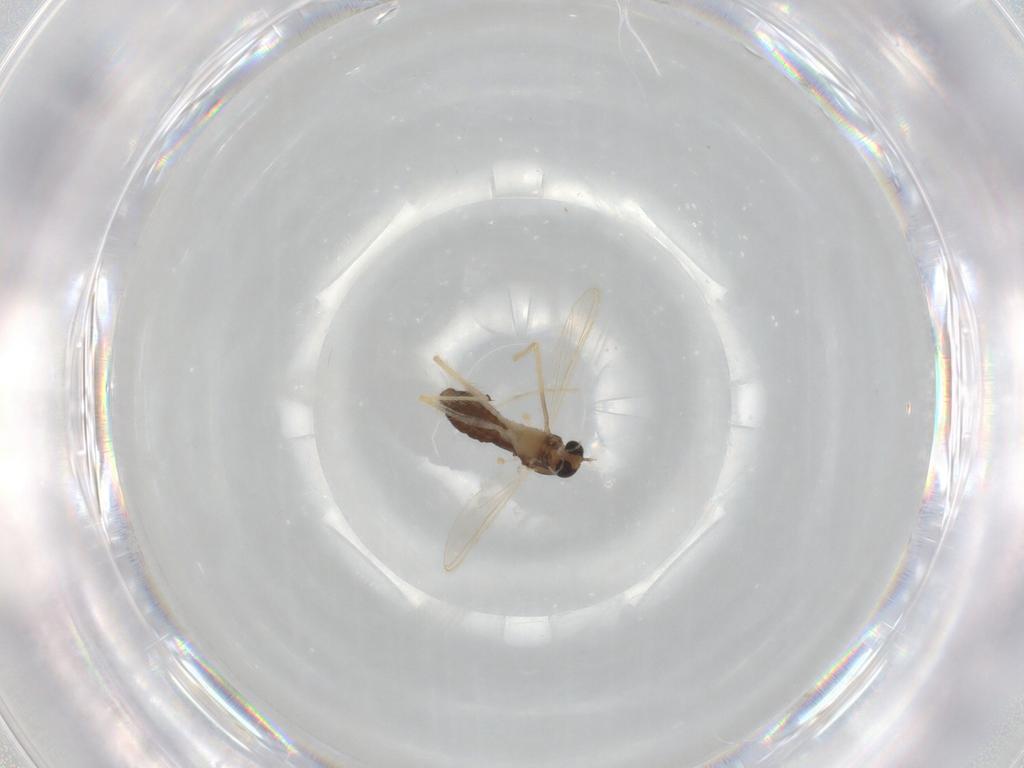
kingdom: Animalia
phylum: Arthropoda
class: Insecta
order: Diptera
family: Chironomidae
